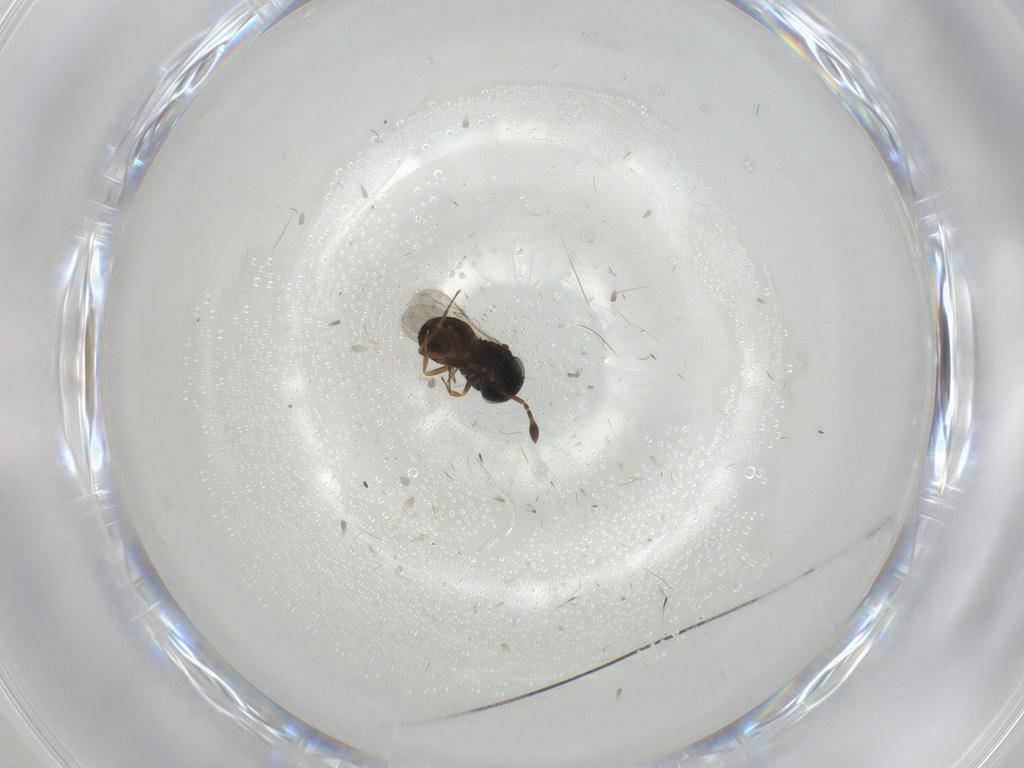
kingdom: Animalia
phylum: Arthropoda
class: Insecta
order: Hymenoptera
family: Scelionidae
